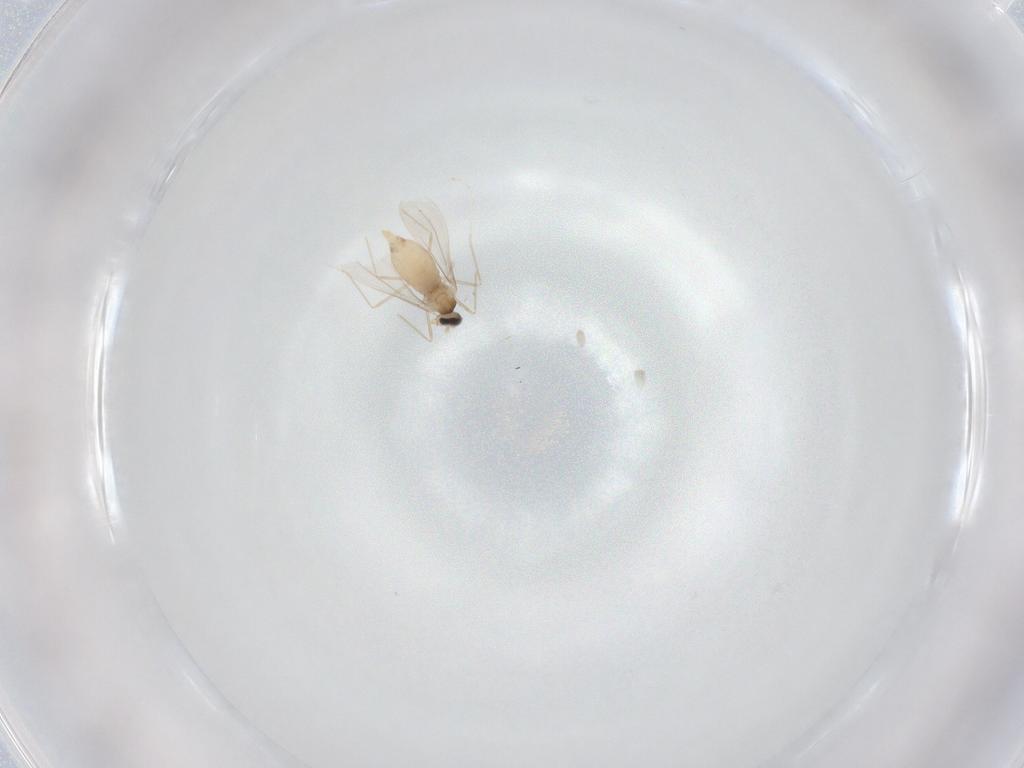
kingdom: Animalia
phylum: Arthropoda
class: Insecta
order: Diptera
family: Cecidomyiidae
